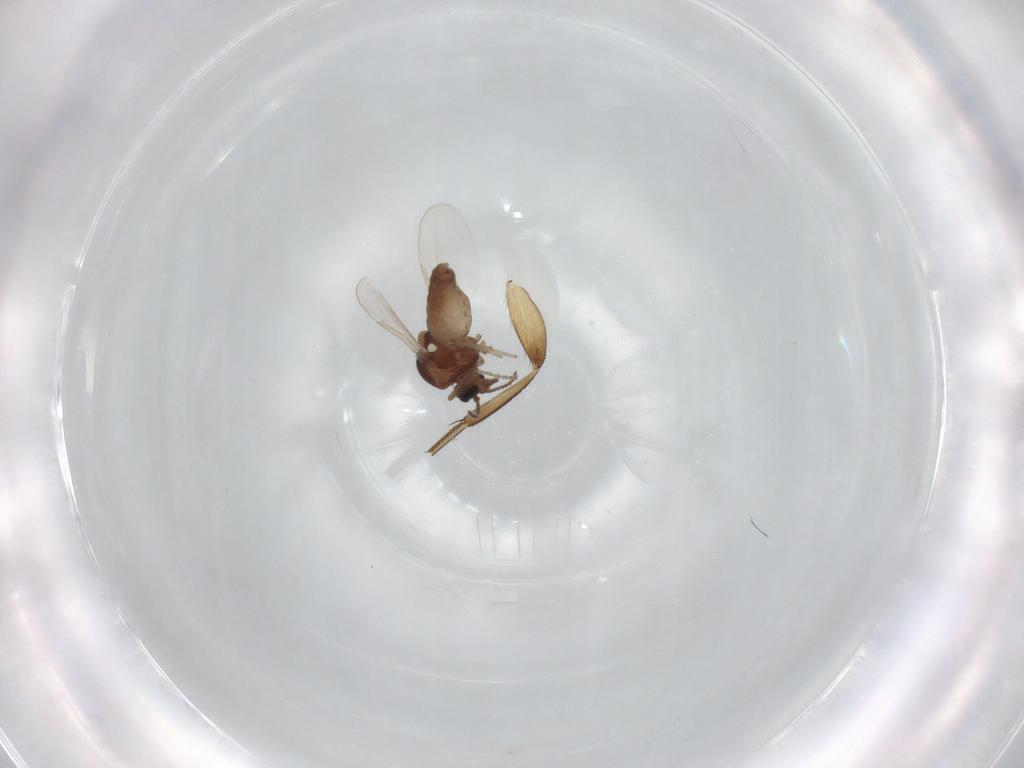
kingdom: Animalia
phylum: Arthropoda
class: Insecta
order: Diptera
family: Ceratopogonidae
